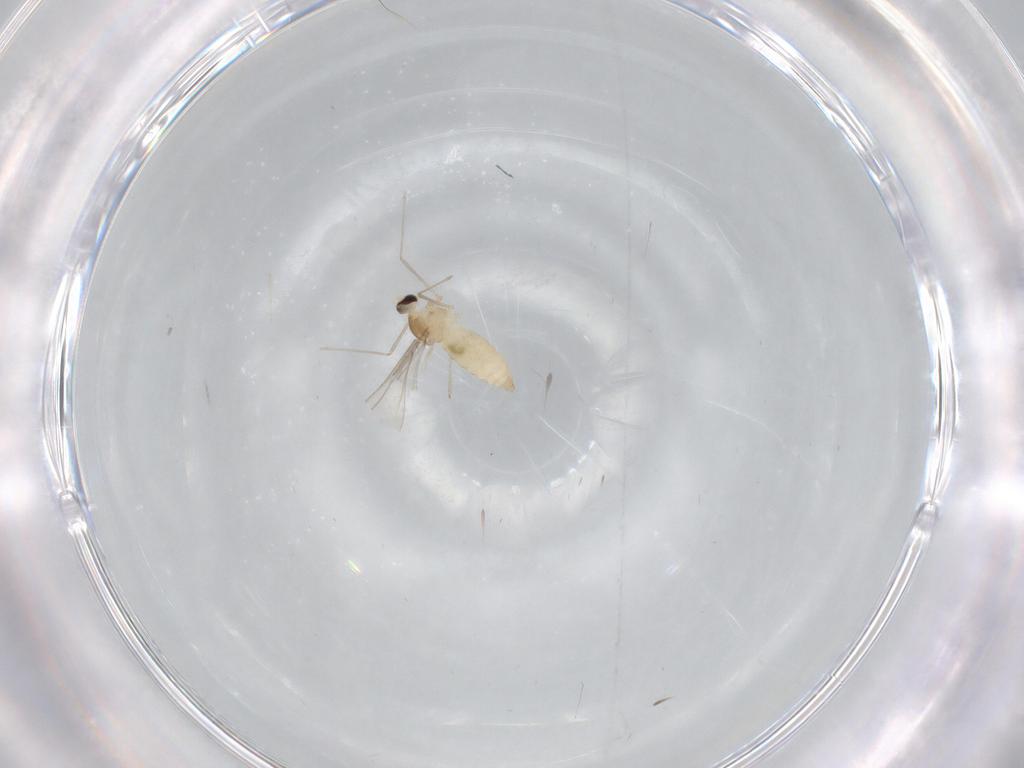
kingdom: Animalia
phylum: Arthropoda
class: Insecta
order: Diptera
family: Cecidomyiidae
